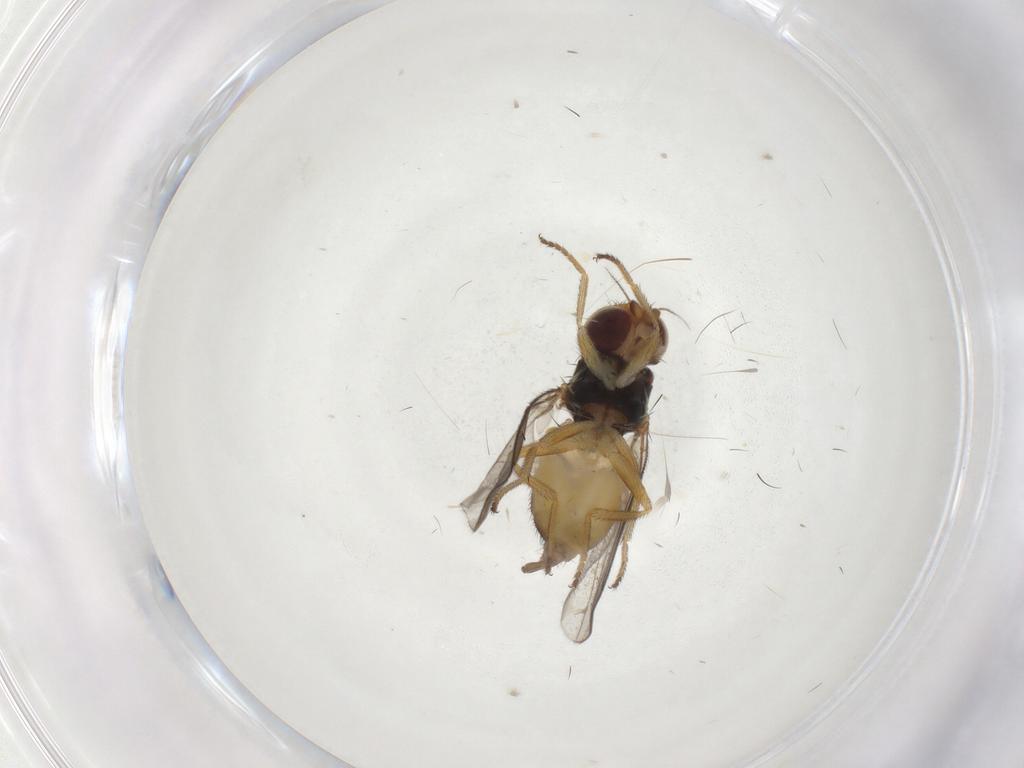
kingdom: Animalia
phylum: Arthropoda
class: Insecta
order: Diptera
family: Chloropidae
